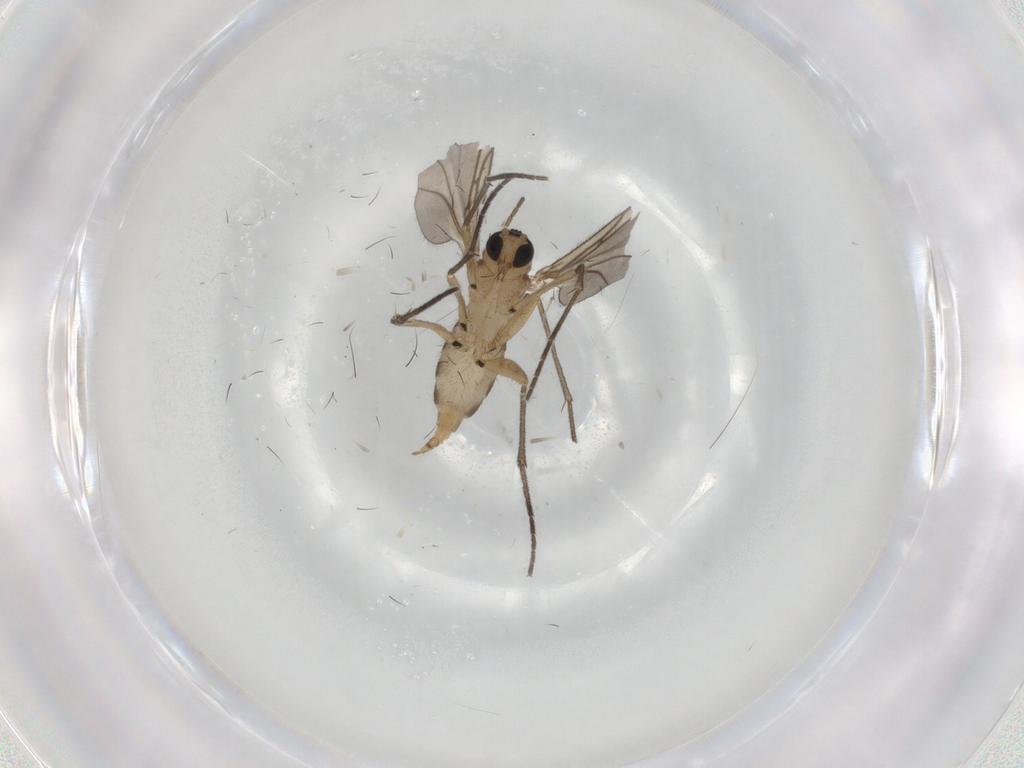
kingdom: Animalia
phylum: Arthropoda
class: Insecta
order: Diptera
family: Sciaridae
